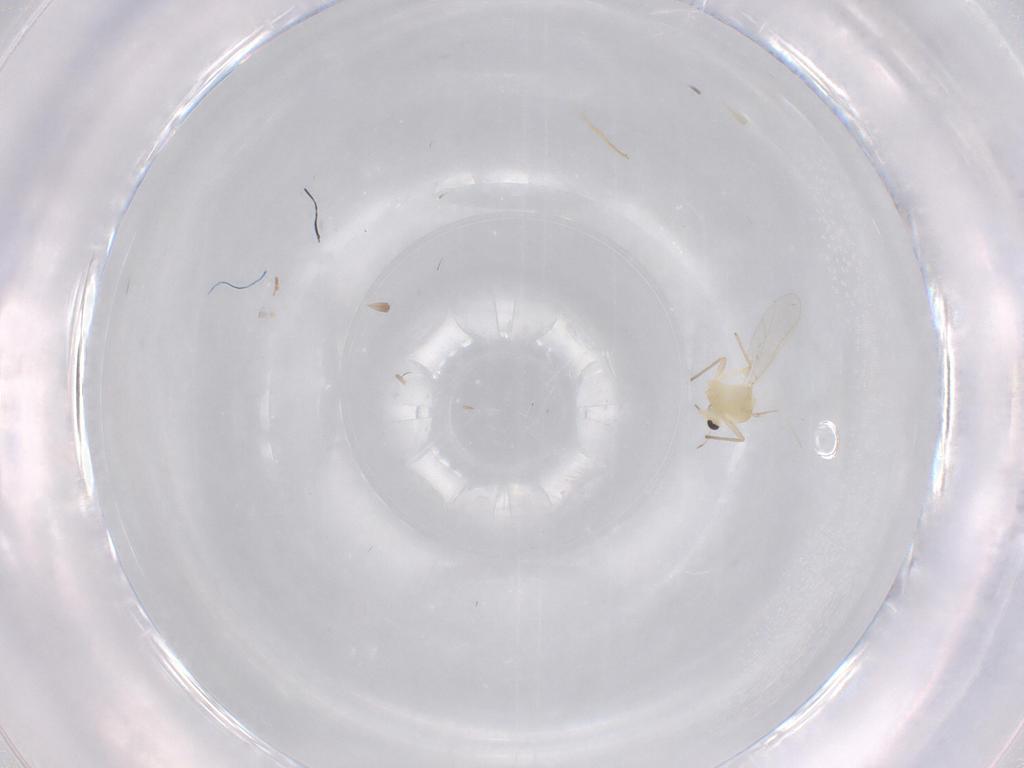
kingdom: Animalia
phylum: Arthropoda
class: Insecta
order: Diptera
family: Chironomidae
